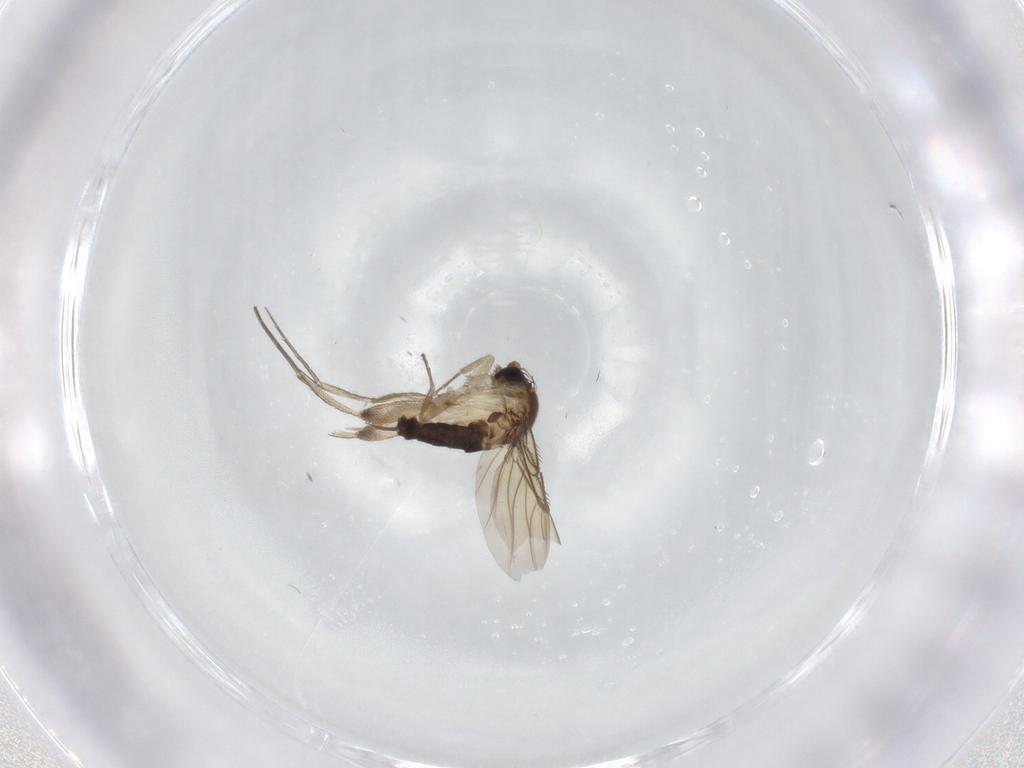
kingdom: Animalia
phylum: Arthropoda
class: Insecta
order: Diptera
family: Phoridae
